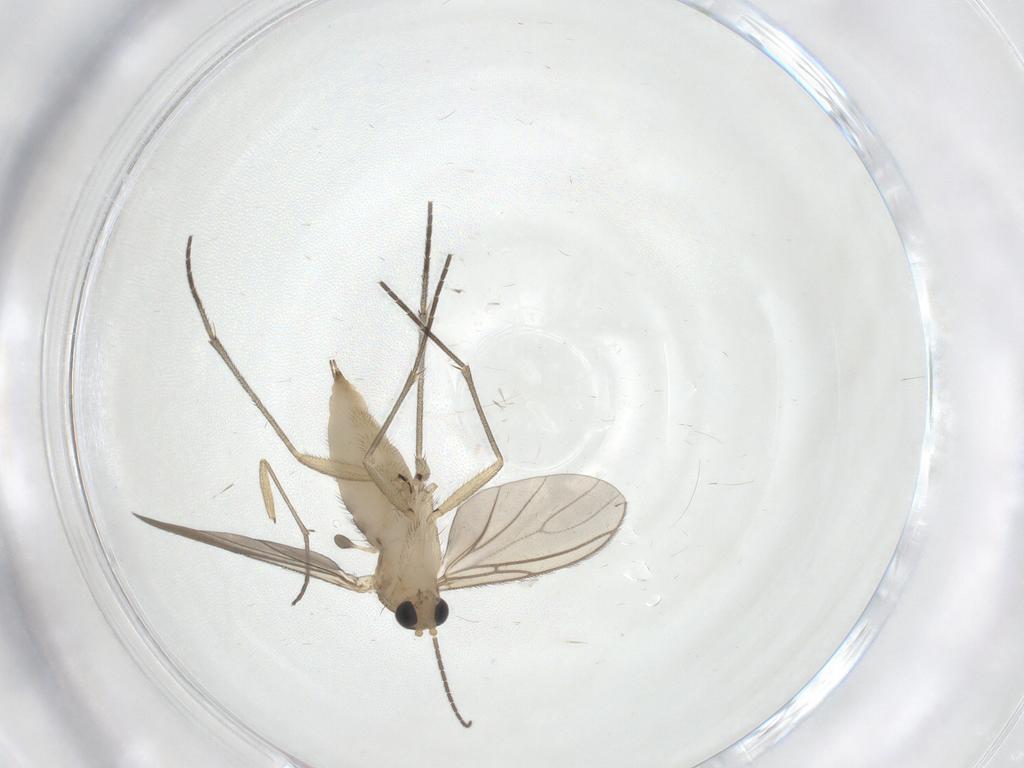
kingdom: Animalia
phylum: Arthropoda
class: Insecta
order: Diptera
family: Sciaridae
